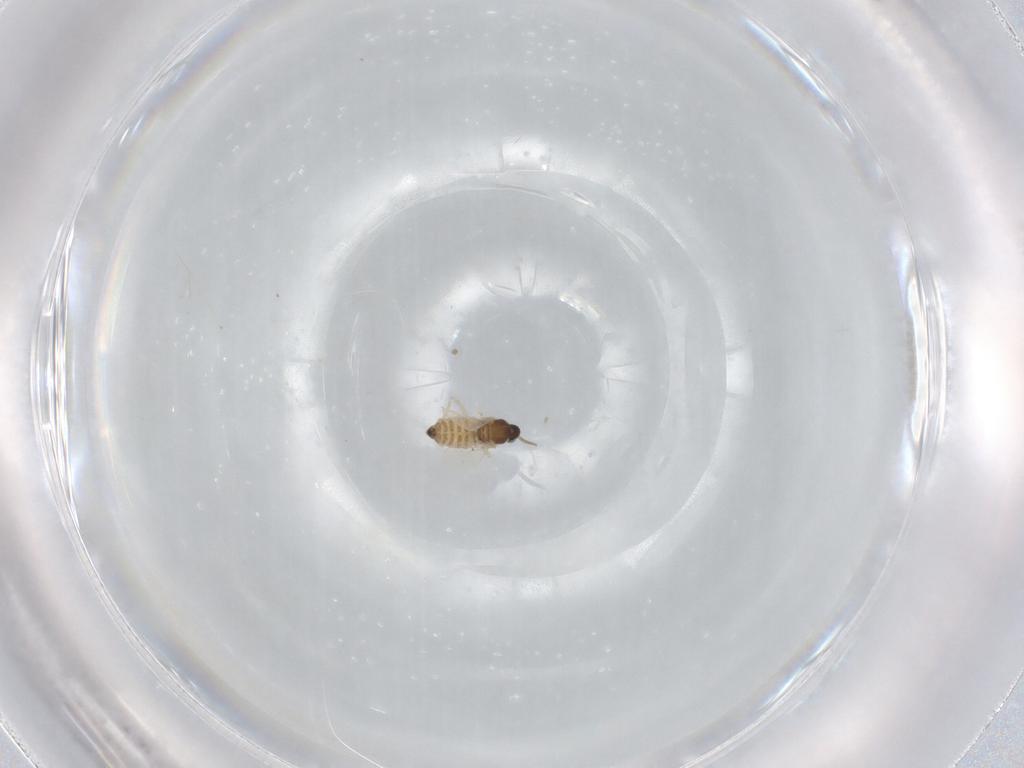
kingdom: Animalia
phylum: Arthropoda
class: Insecta
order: Diptera
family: Cecidomyiidae
